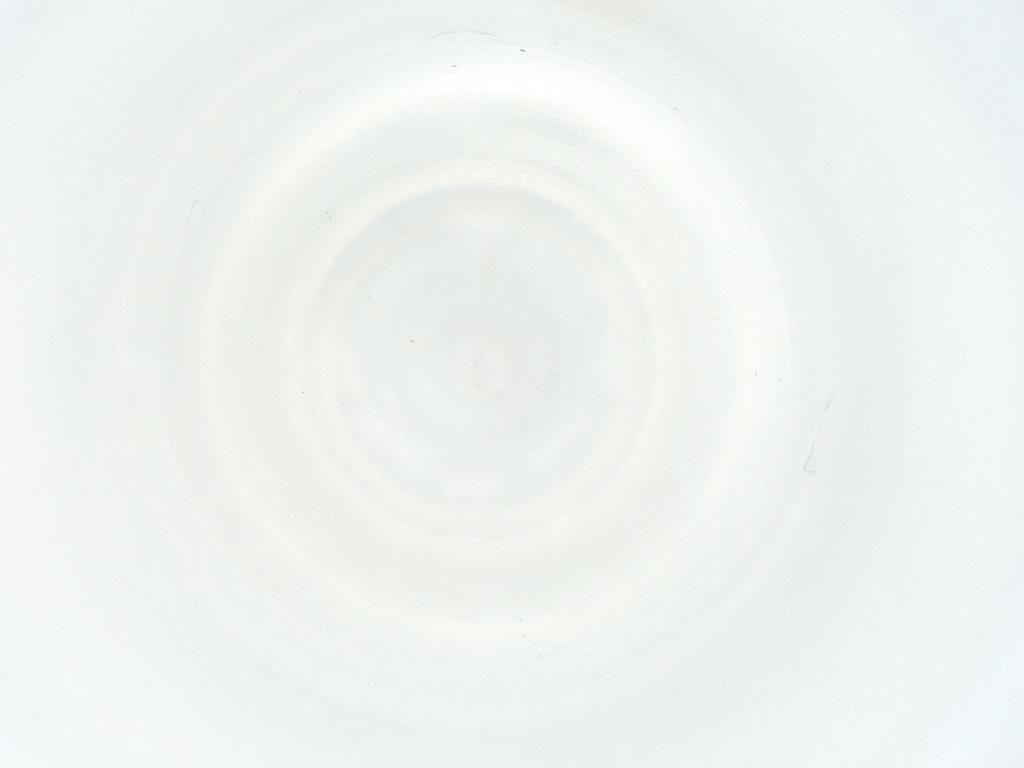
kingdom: Animalia
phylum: Arthropoda
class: Insecta
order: Hymenoptera
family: Mymaridae
